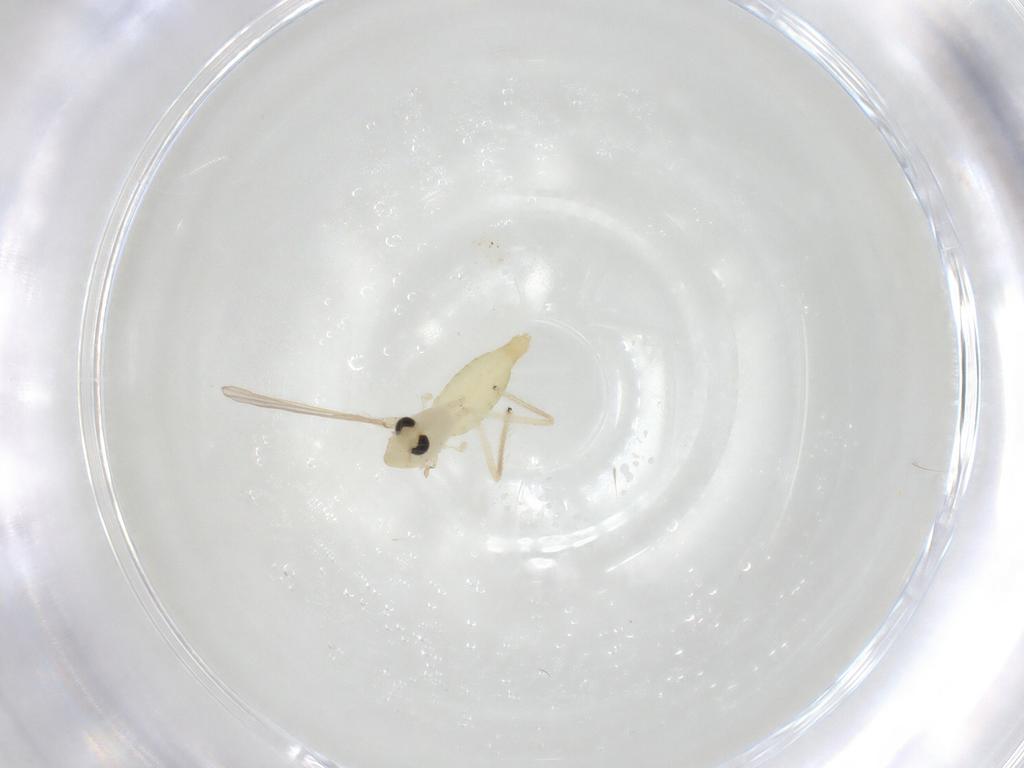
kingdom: Animalia
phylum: Arthropoda
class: Insecta
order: Diptera
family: Chironomidae
